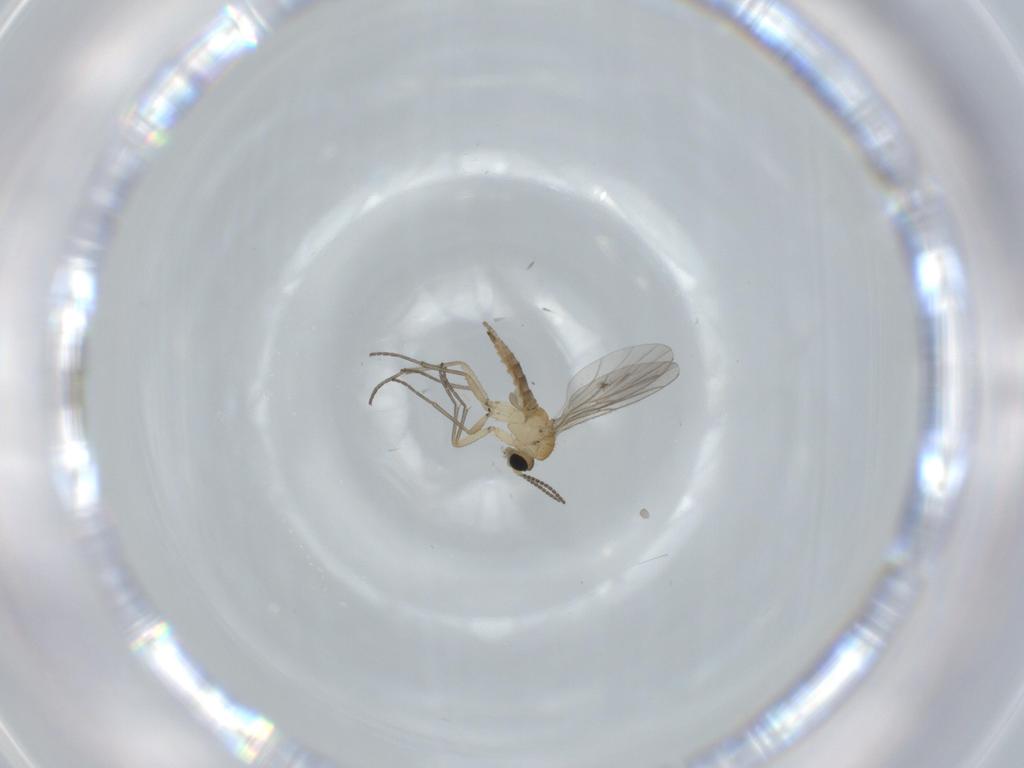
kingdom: Animalia
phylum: Arthropoda
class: Insecta
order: Diptera
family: Sciaridae
